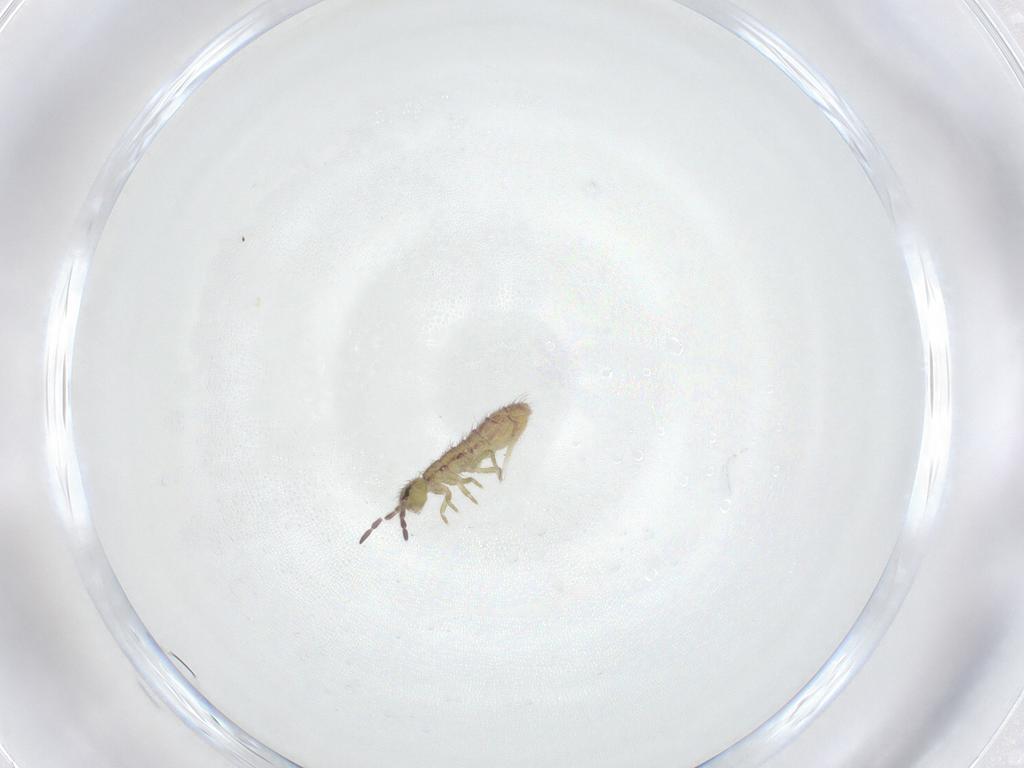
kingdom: Animalia
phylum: Arthropoda
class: Collembola
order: Entomobryomorpha
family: Isotomidae
